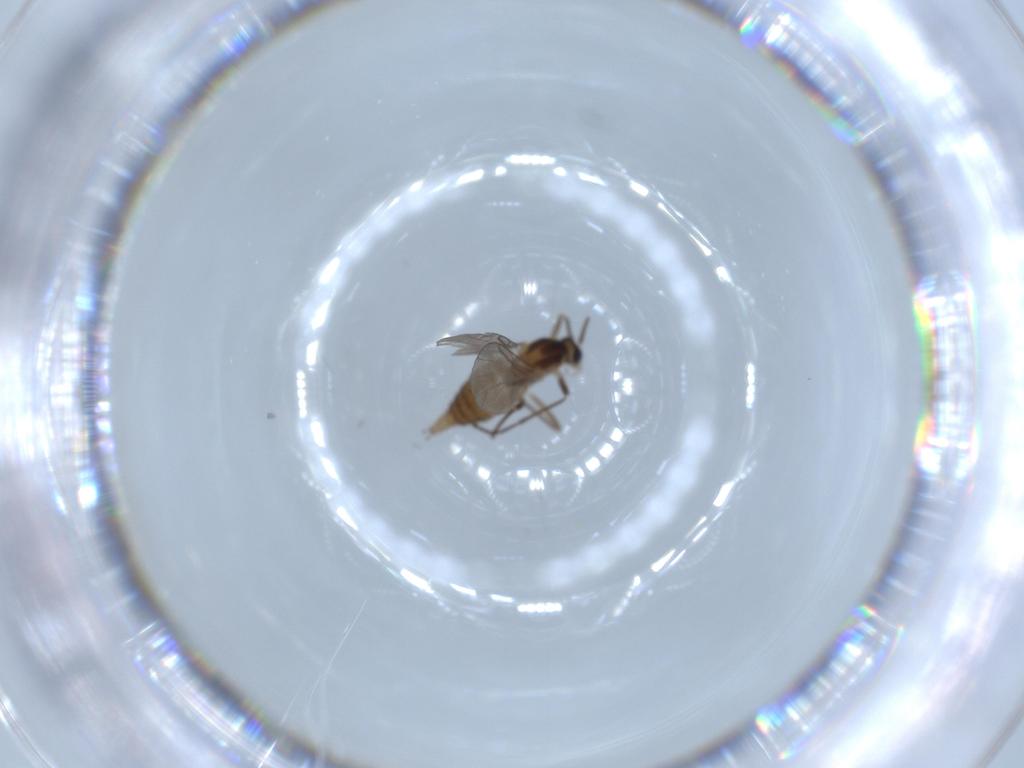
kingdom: Animalia
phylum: Arthropoda
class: Insecta
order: Diptera
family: Cecidomyiidae
